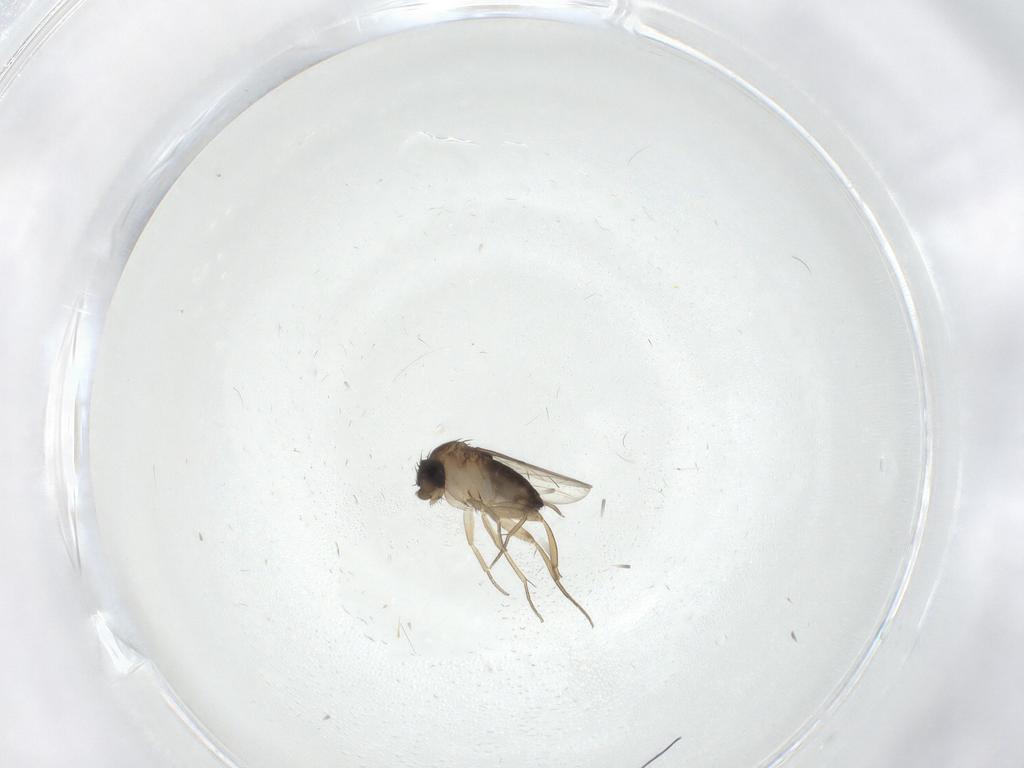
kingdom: Animalia
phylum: Arthropoda
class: Insecta
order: Diptera
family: Phoridae
